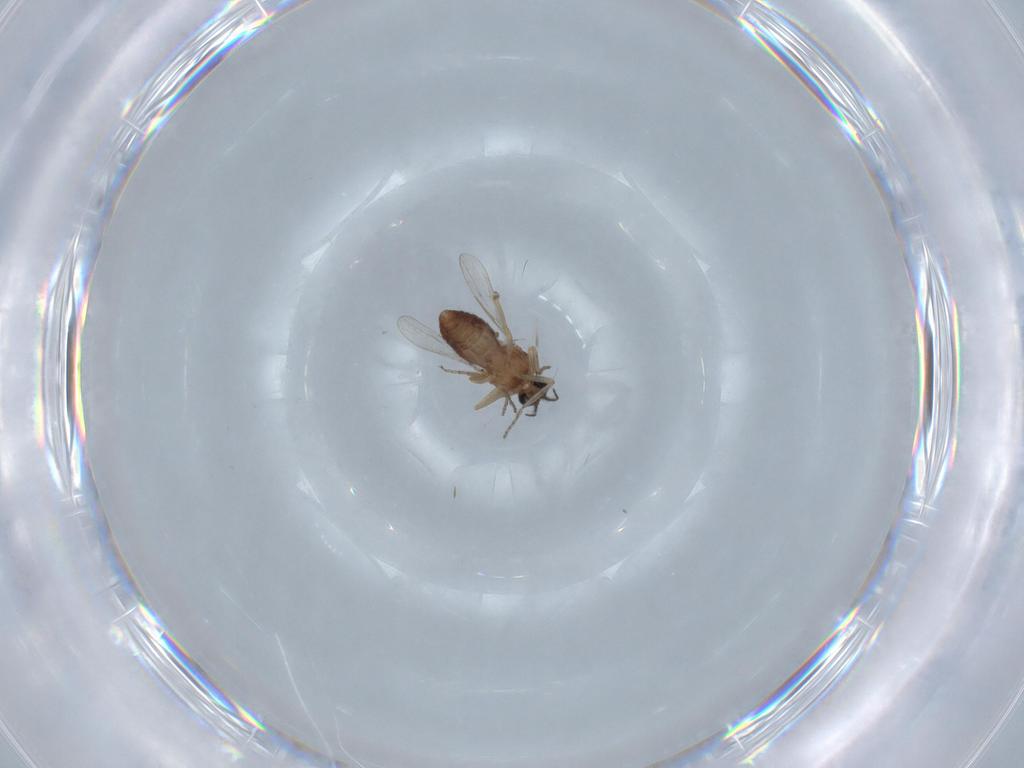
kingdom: Animalia
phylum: Arthropoda
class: Insecta
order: Diptera
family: Ceratopogonidae
